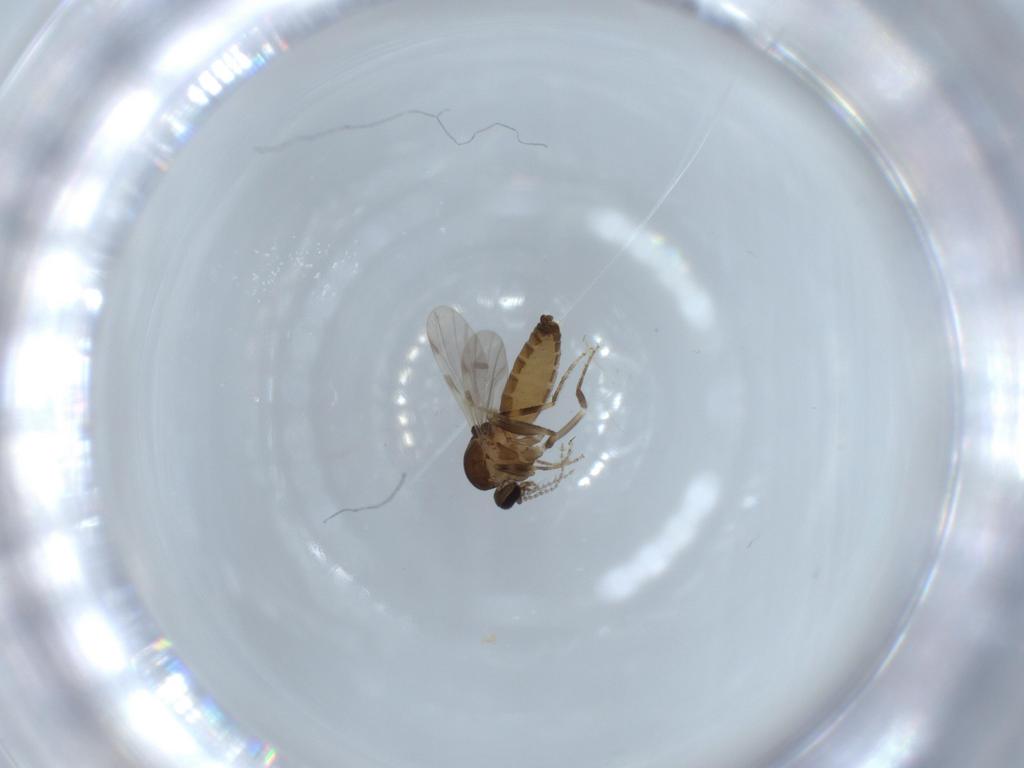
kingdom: Animalia
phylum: Arthropoda
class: Insecta
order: Diptera
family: Ceratopogonidae
